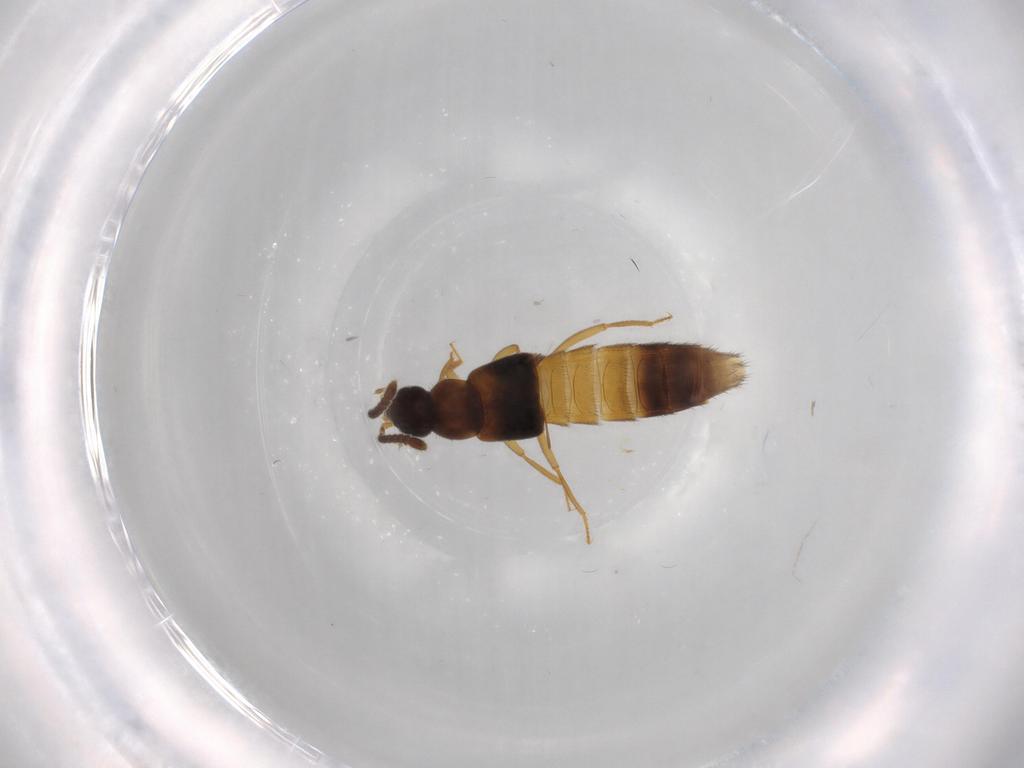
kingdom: Animalia
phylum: Arthropoda
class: Insecta
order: Coleoptera
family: Staphylinidae
